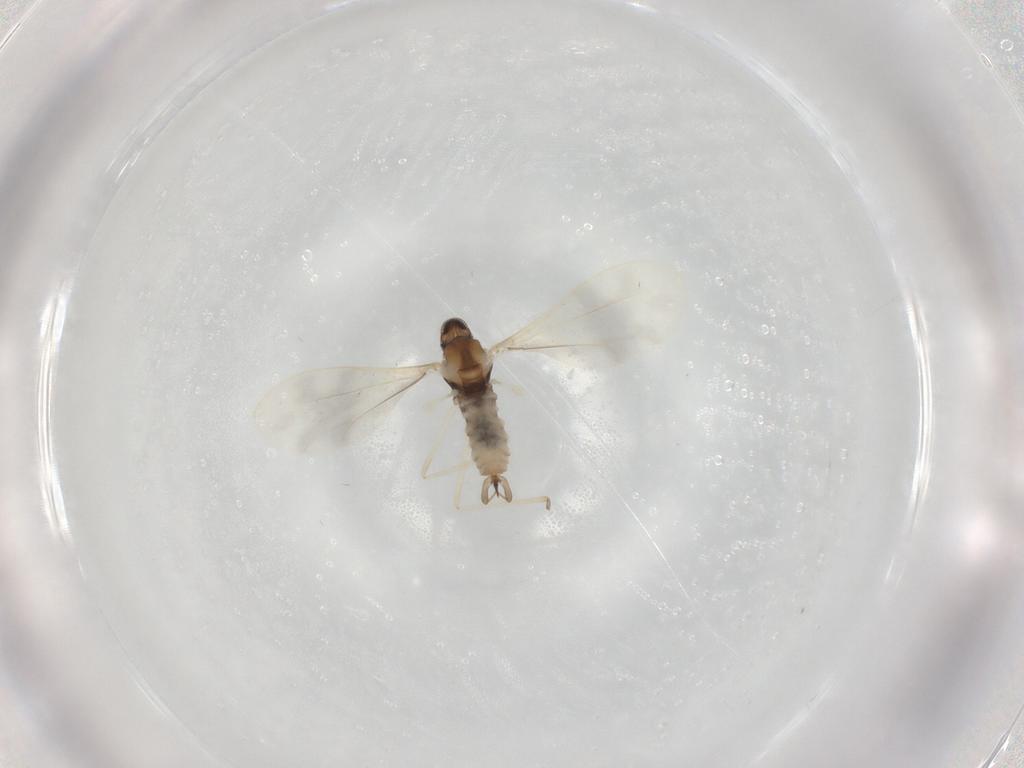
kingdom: Animalia
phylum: Arthropoda
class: Insecta
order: Diptera
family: Cecidomyiidae
